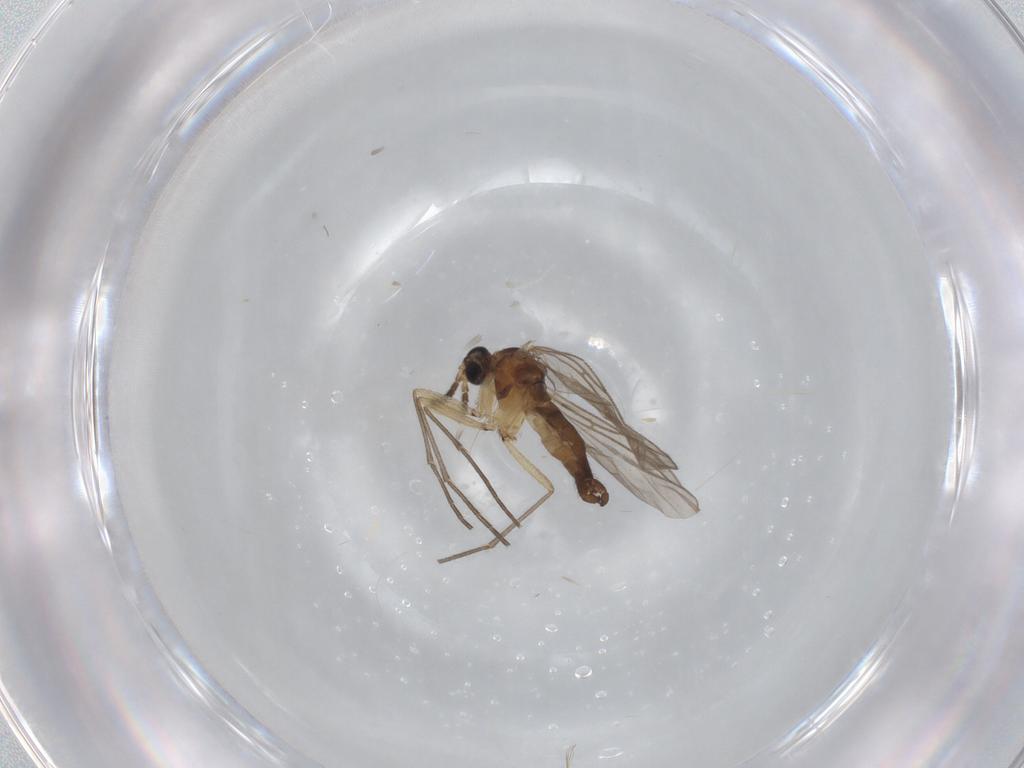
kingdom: Animalia
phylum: Arthropoda
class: Insecta
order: Diptera
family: Sciaridae
